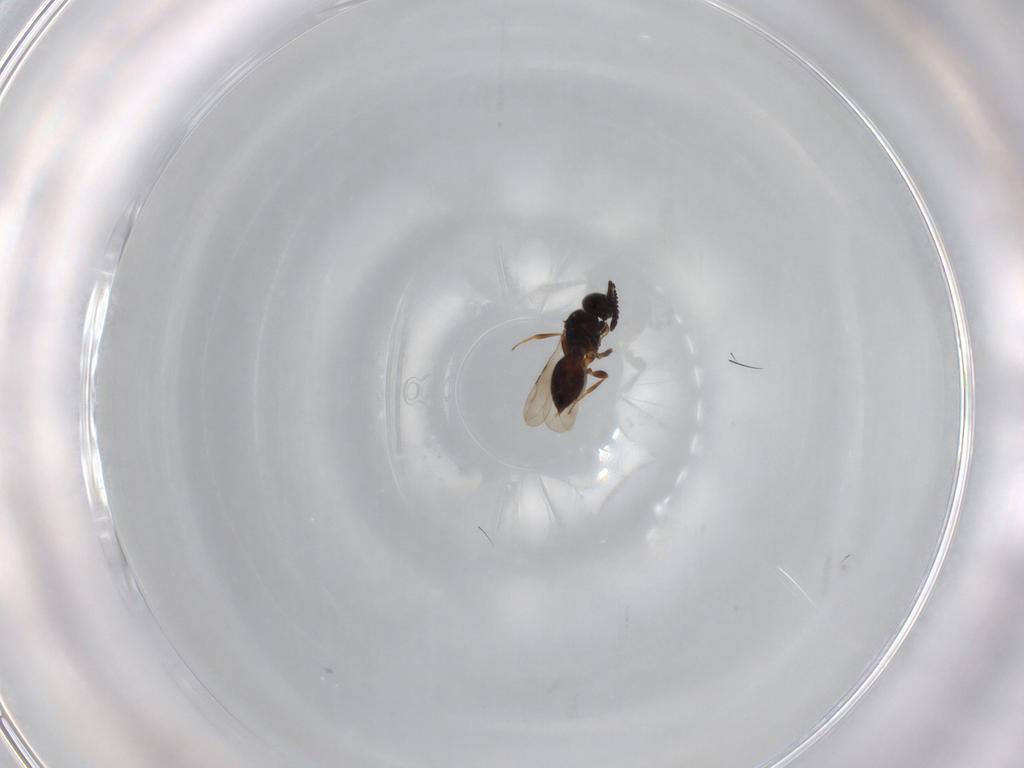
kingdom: Animalia
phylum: Arthropoda
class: Insecta
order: Hymenoptera
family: Ceraphronidae
